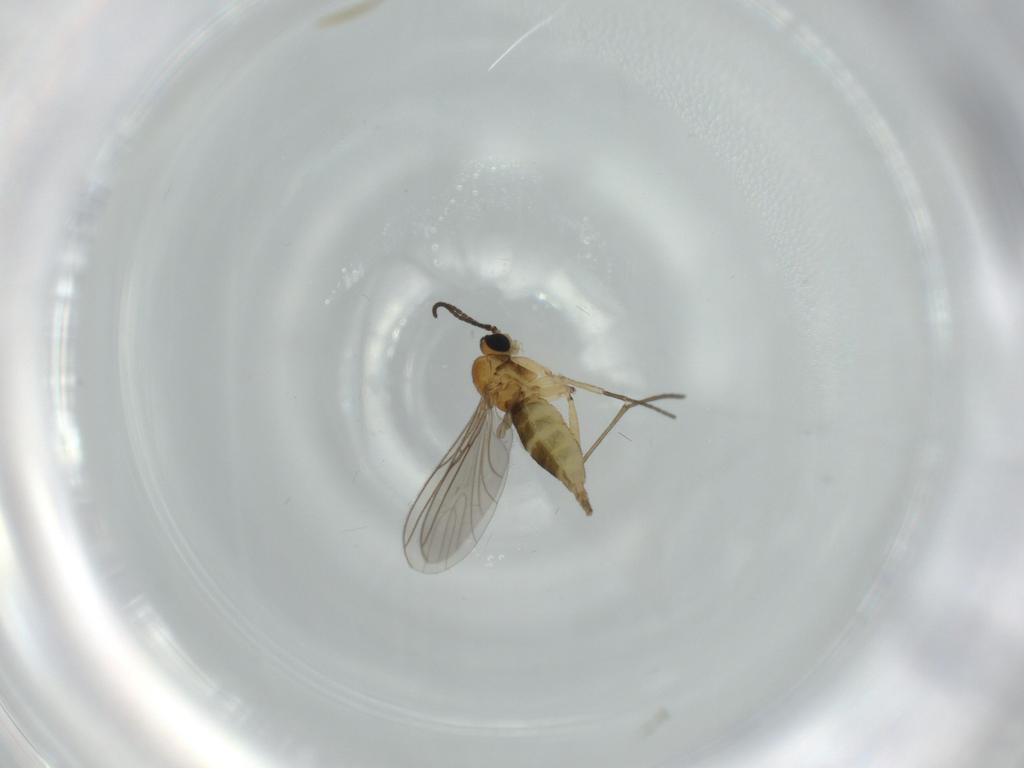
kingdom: Animalia
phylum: Arthropoda
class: Insecta
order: Diptera
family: Sciaridae
